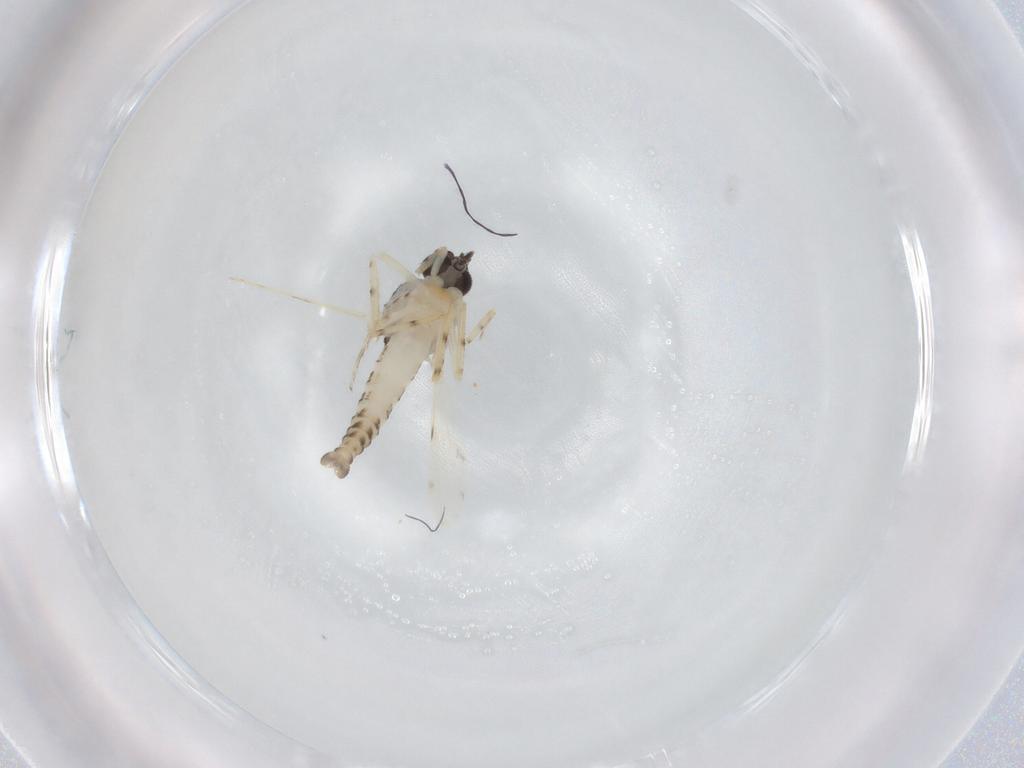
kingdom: Animalia
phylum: Arthropoda
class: Insecta
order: Diptera
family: Ceratopogonidae
